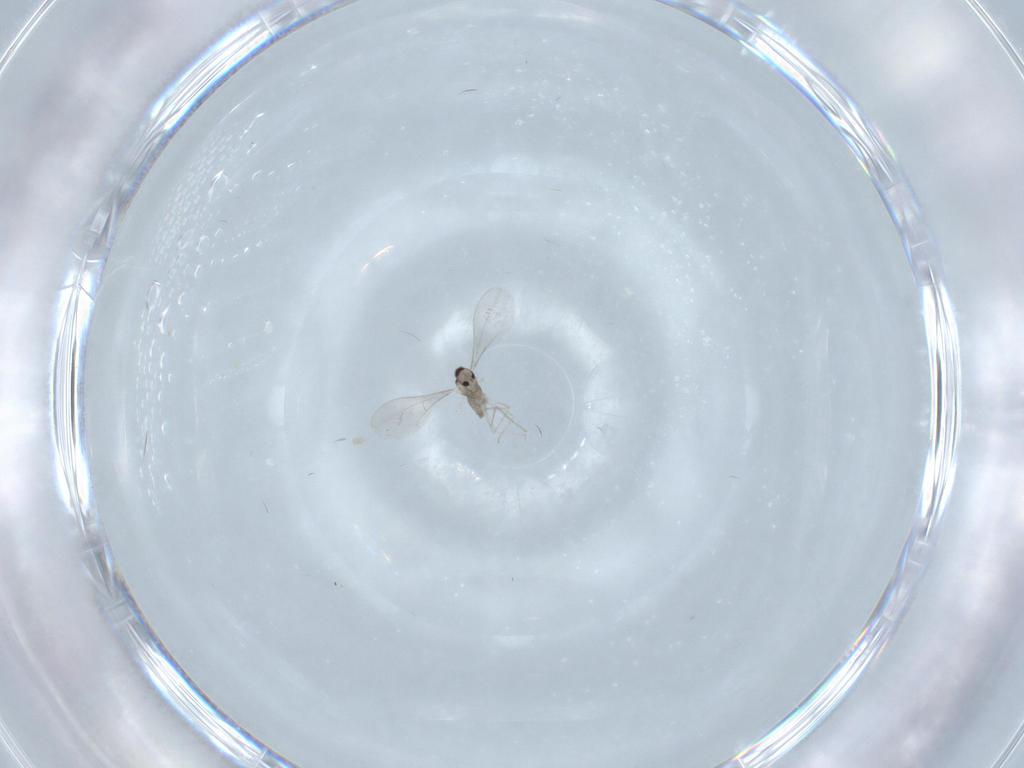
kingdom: Animalia
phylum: Arthropoda
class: Insecta
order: Diptera
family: Cecidomyiidae
